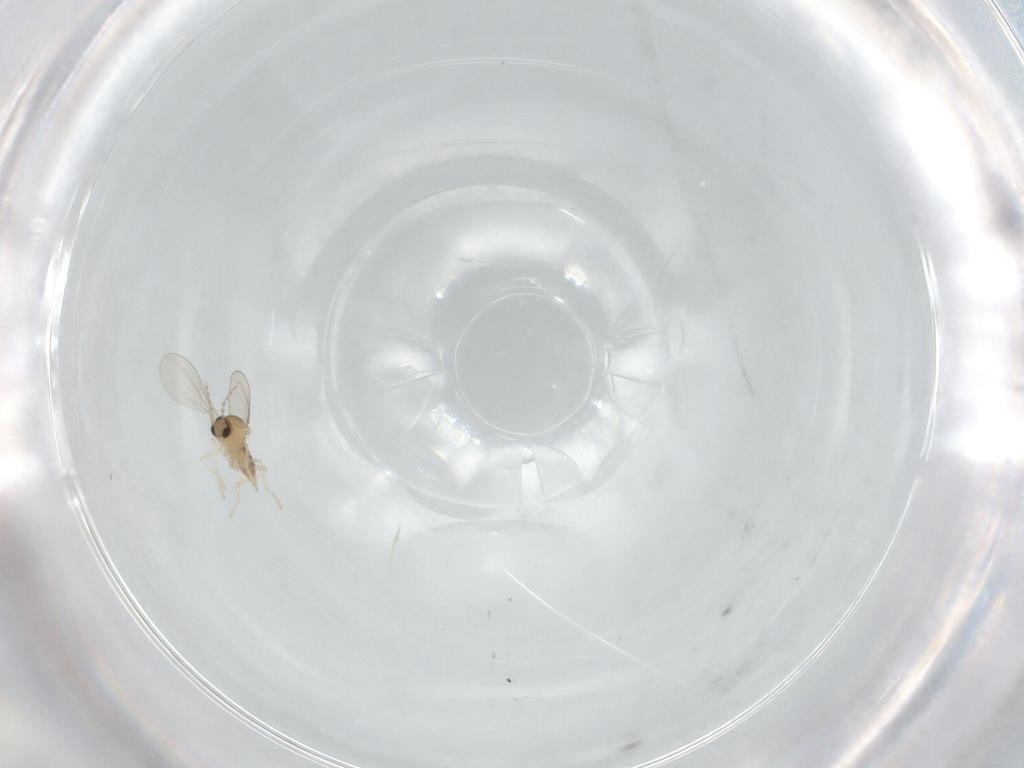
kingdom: Animalia
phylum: Arthropoda
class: Insecta
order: Diptera
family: Cecidomyiidae
